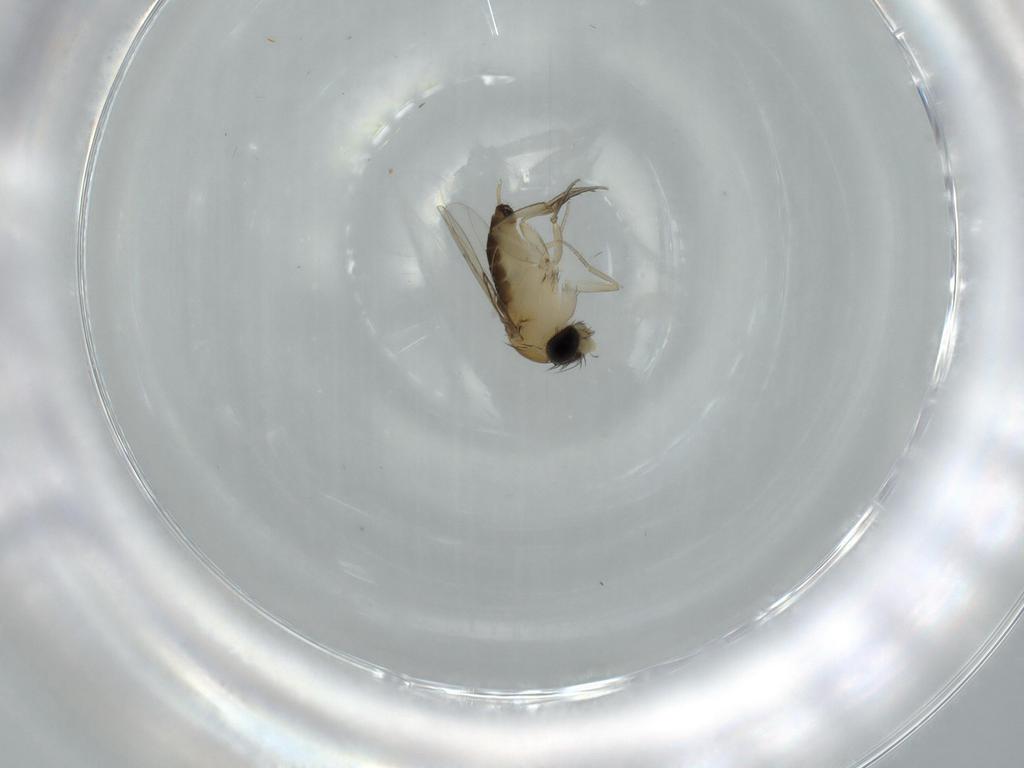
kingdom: Animalia
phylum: Arthropoda
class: Insecta
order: Diptera
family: Phoridae
